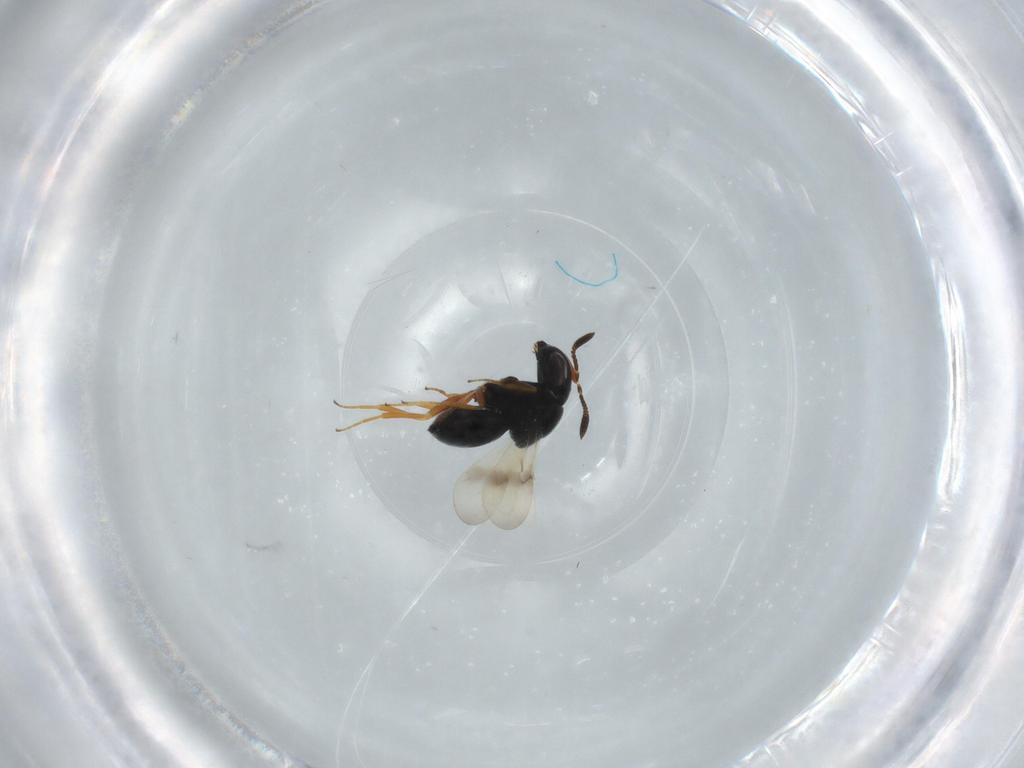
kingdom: Animalia
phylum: Arthropoda
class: Insecta
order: Hymenoptera
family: Scelionidae
